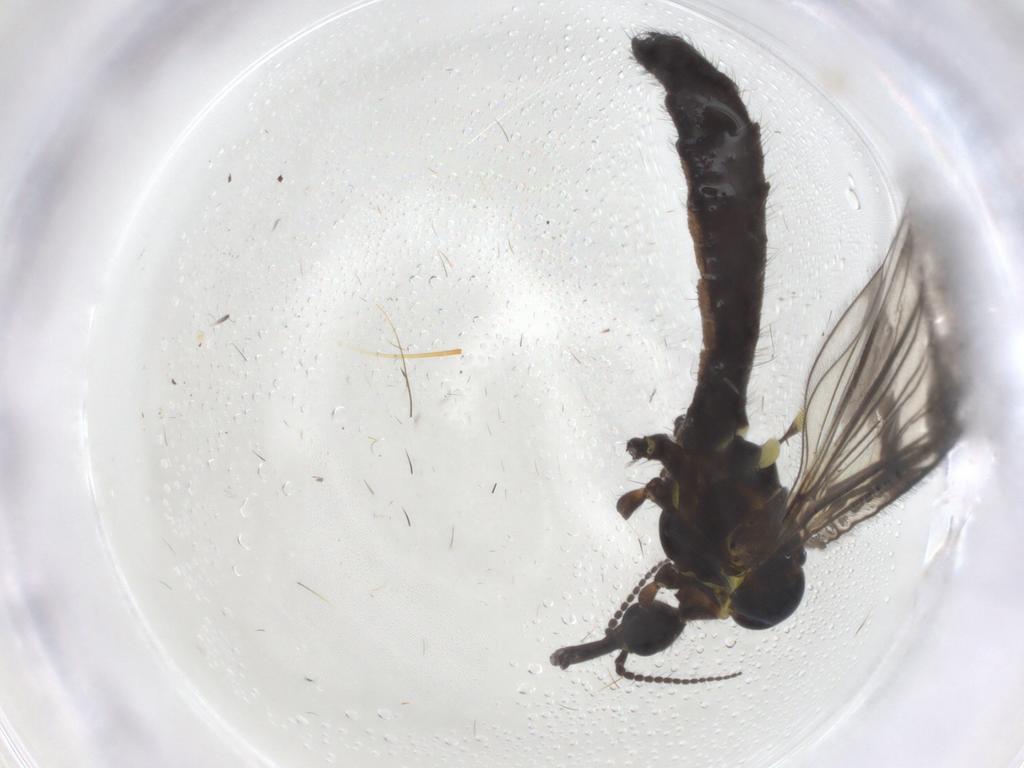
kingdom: Animalia
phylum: Arthropoda
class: Insecta
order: Diptera
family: Limoniidae
